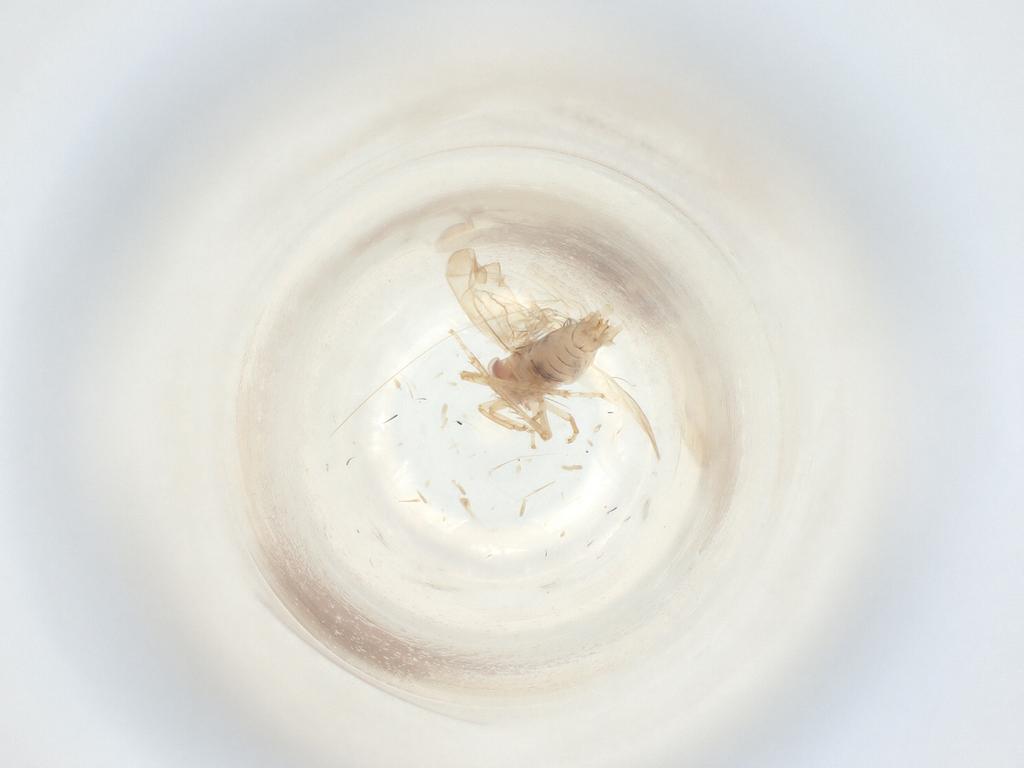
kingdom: Animalia
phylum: Arthropoda
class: Insecta
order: Hemiptera
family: Cicadellidae
